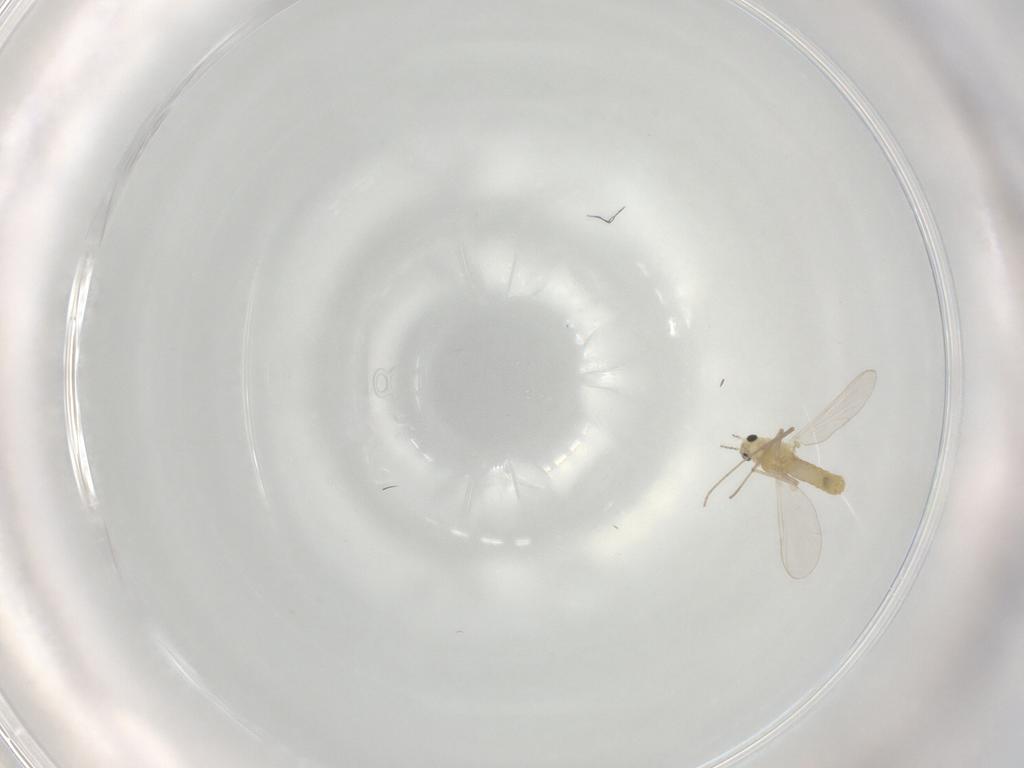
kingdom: Animalia
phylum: Arthropoda
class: Insecta
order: Diptera
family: Chironomidae
